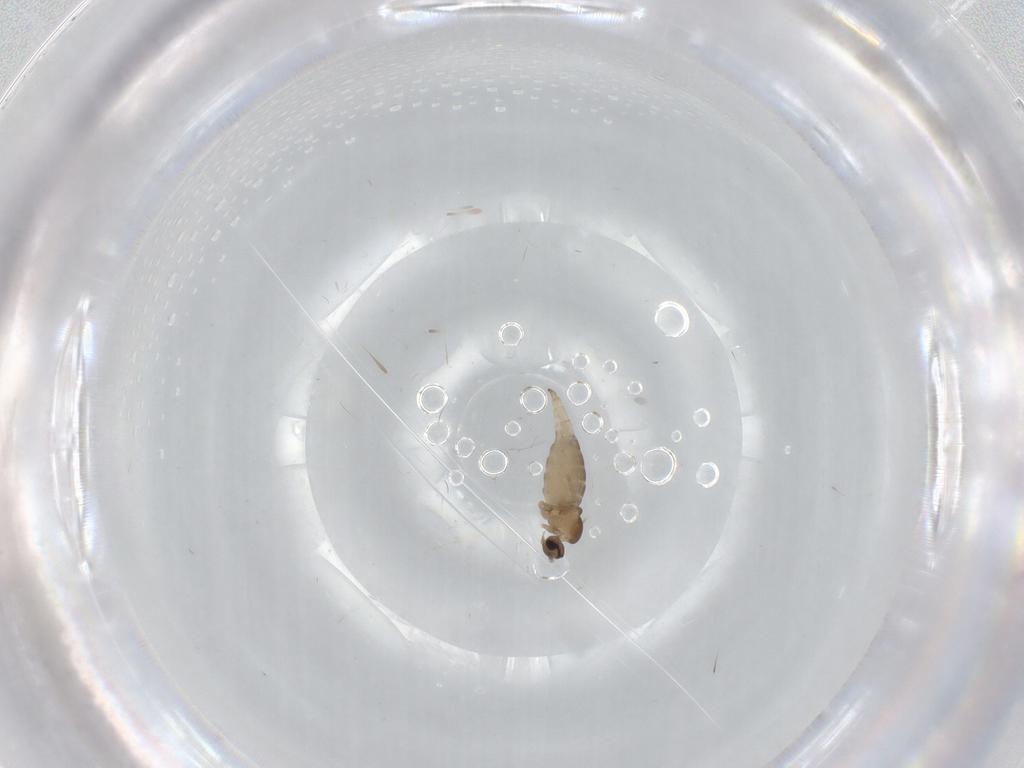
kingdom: Animalia
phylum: Arthropoda
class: Insecta
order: Diptera
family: Cecidomyiidae
